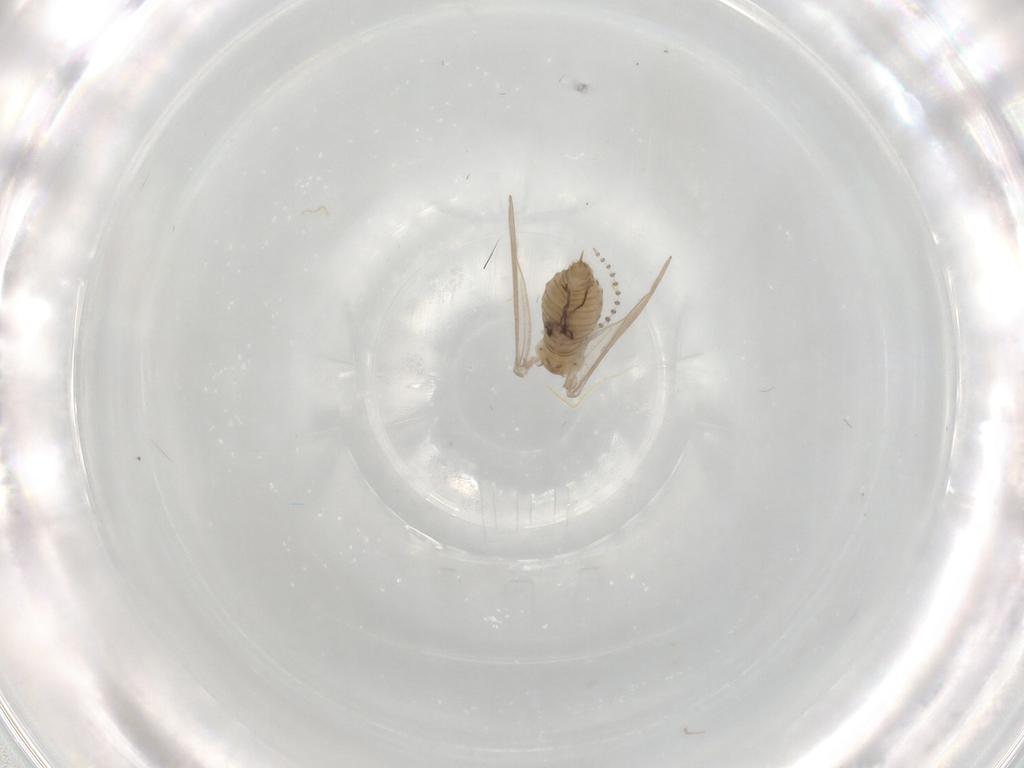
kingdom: Animalia
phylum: Arthropoda
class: Insecta
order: Diptera
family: Psychodidae
